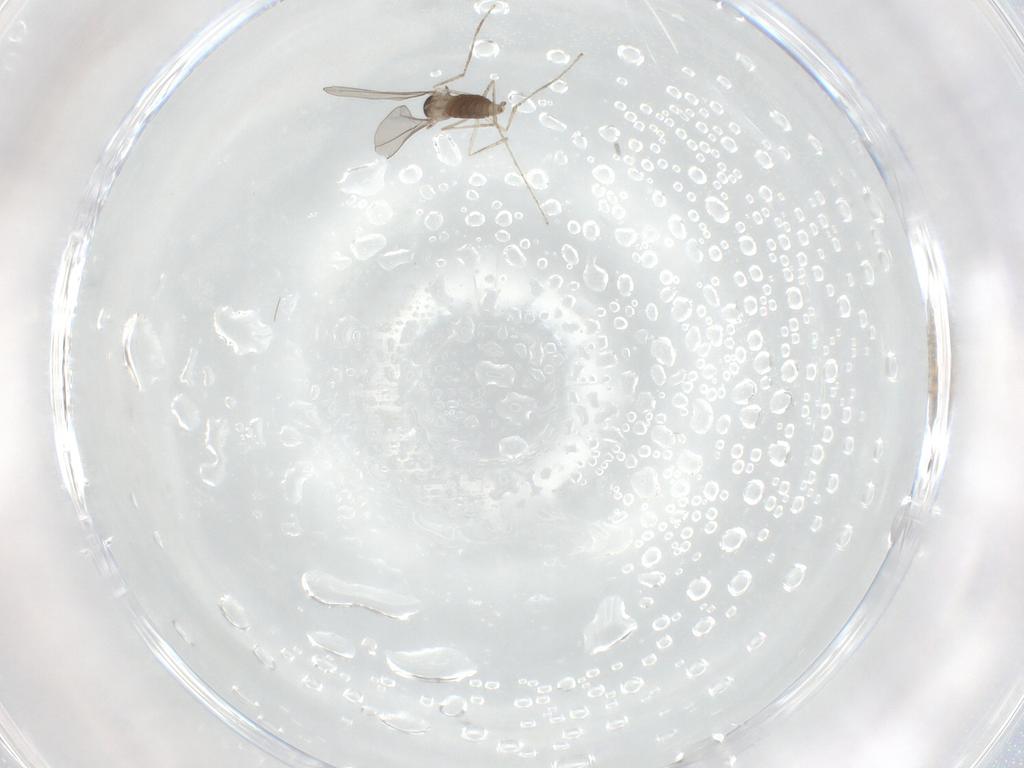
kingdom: Animalia
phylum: Arthropoda
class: Insecta
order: Diptera
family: Cecidomyiidae
